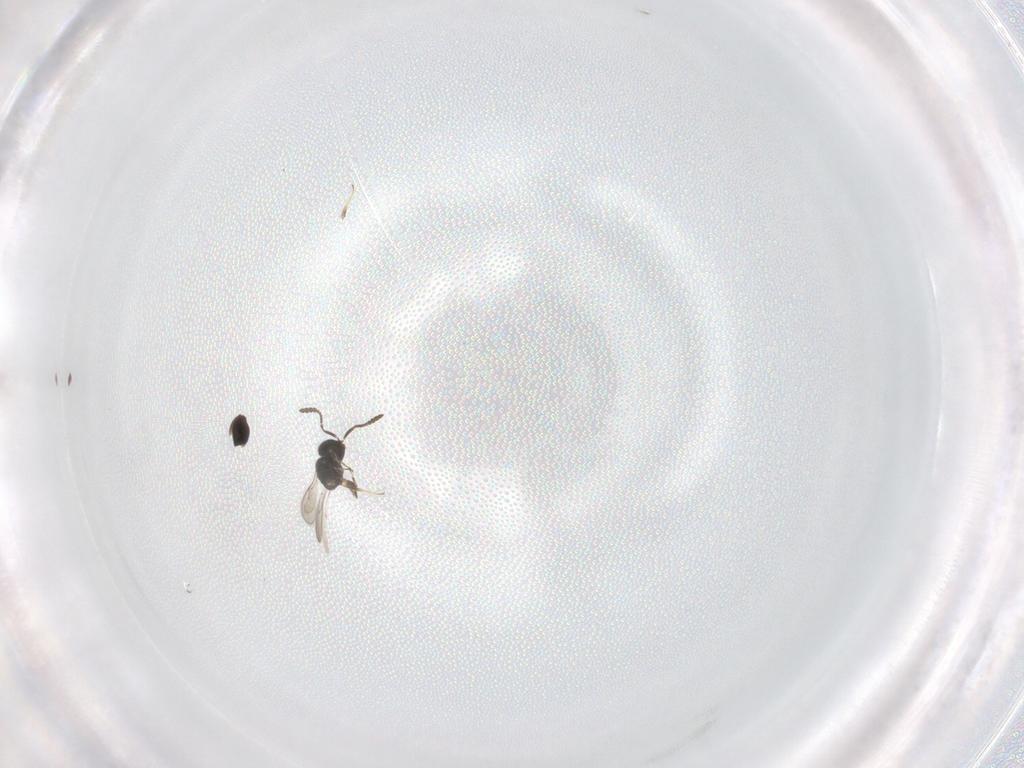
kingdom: Animalia
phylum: Arthropoda
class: Insecta
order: Hymenoptera
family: Scelionidae
